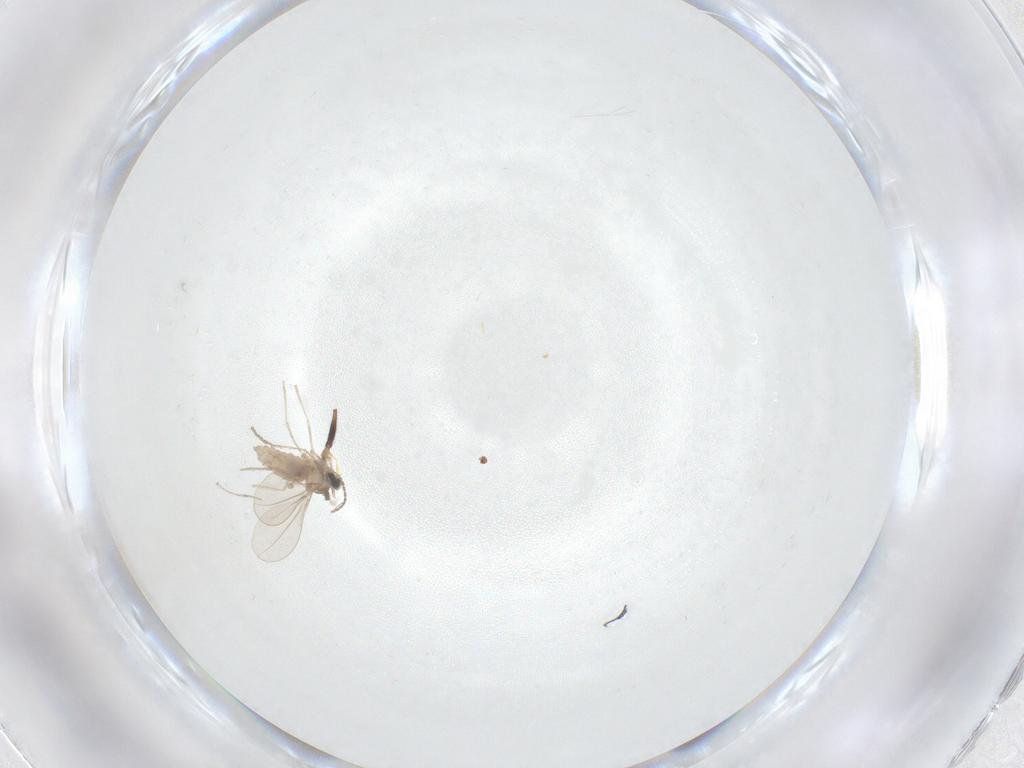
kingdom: Animalia
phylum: Arthropoda
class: Insecta
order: Diptera
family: Cecidomyiidae
